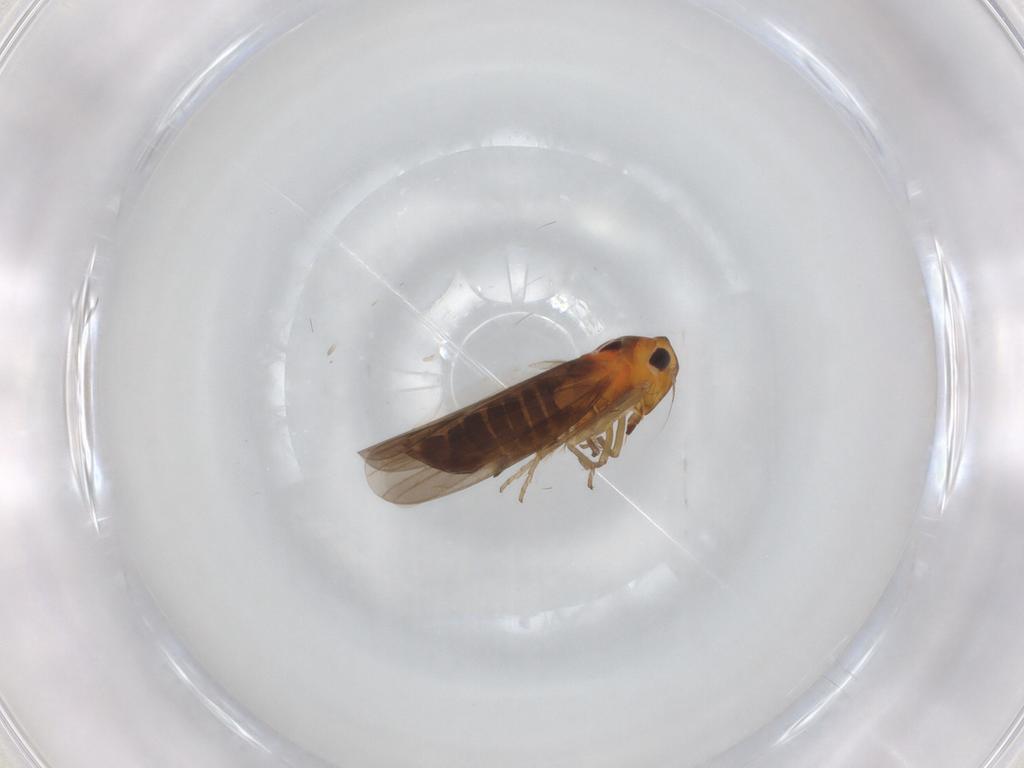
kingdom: Animalia
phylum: Arthropoda
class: Insecta
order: Hemiptera
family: Cicadellidae
